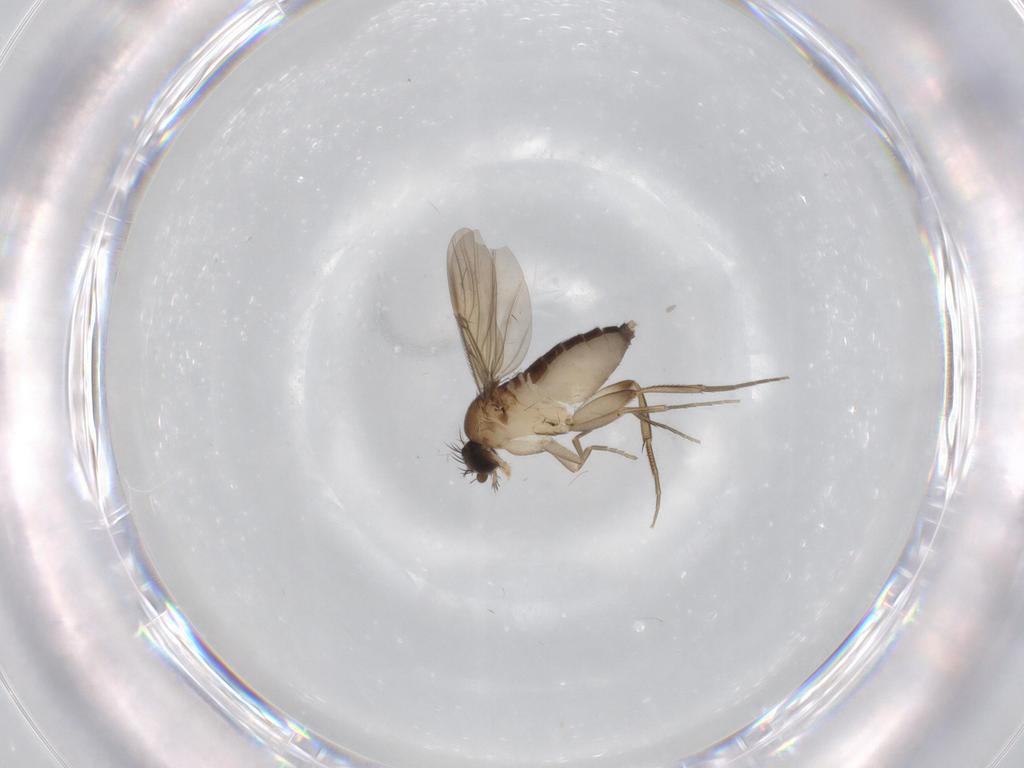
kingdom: Animalia
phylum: Arthropoda
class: Insecta
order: Diptera
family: Phoridae
